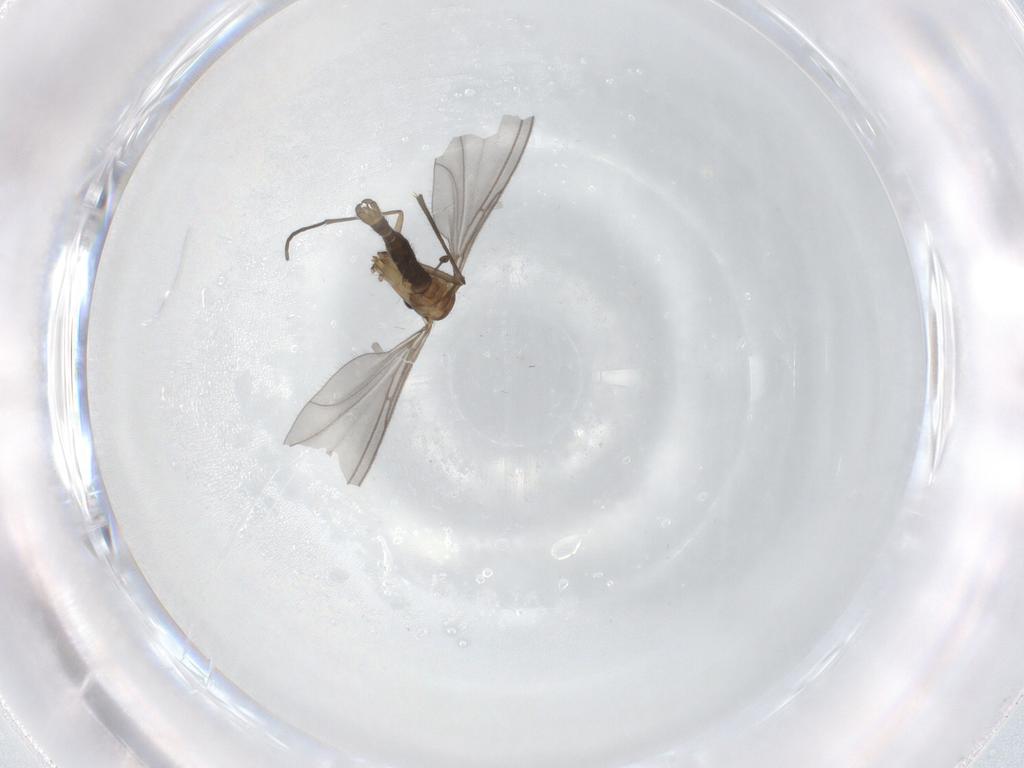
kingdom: Animalia
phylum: Arthropoda
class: Insecta
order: Diptera
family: Sciaridae
